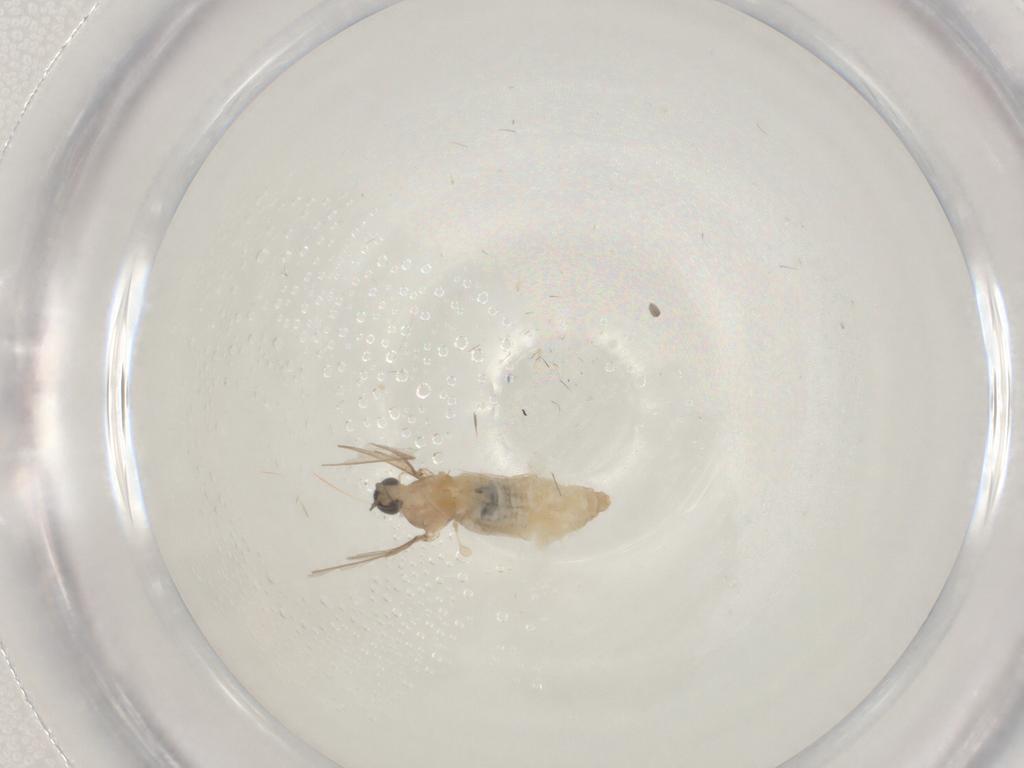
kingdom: Animalia
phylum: Arthropoda
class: Insecta
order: Diptera
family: Cecidomyiidae
